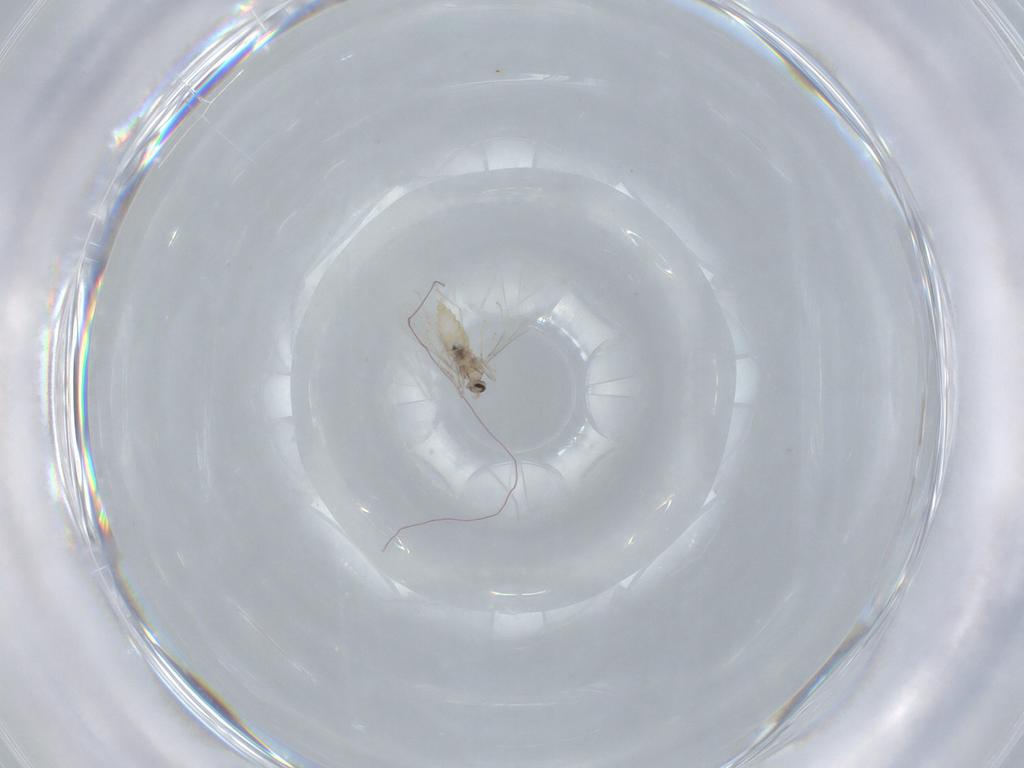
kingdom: Animalia
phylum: Arthropoda
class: Insecta
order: Diptera
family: Cecidomyiidae
